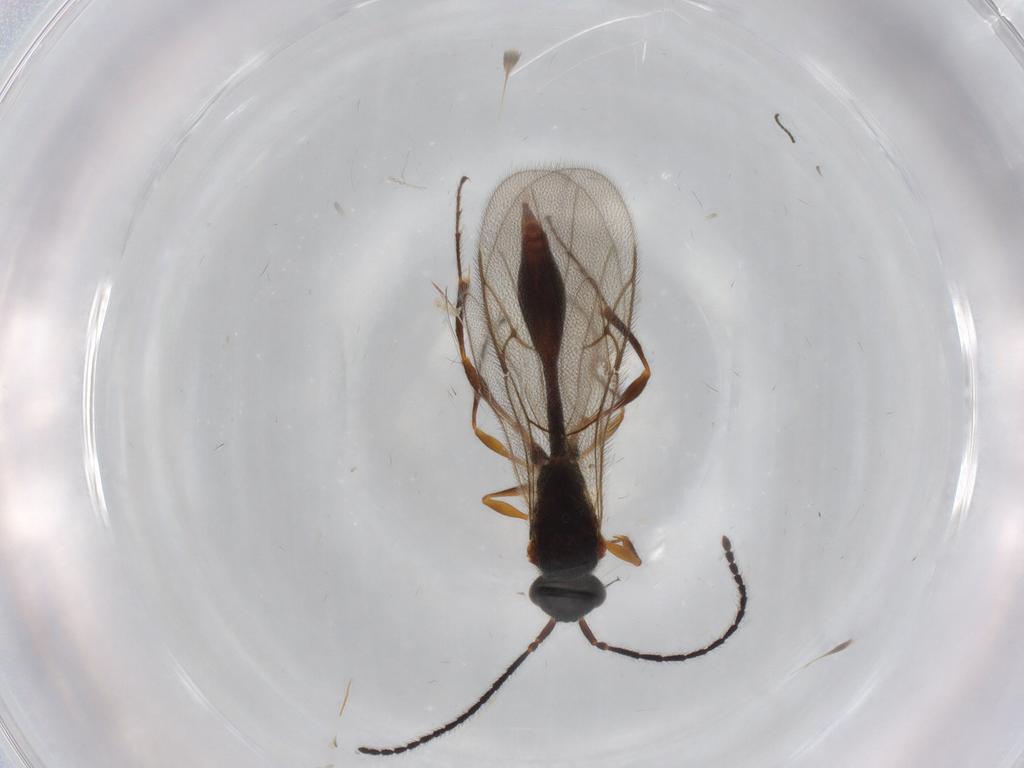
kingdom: Animalia
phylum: Arthropoda
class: Insecta
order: Hymenoptera
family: Diapriidae
